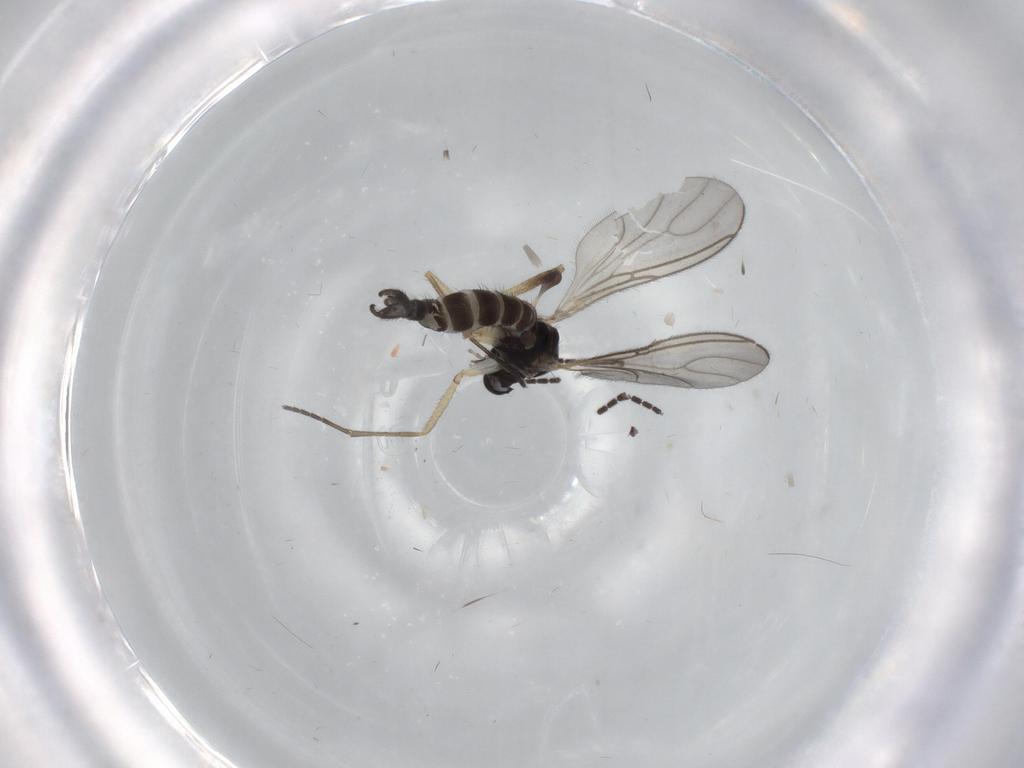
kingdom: Animalia
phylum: Arthropoda
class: Insecta
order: Diptera
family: Sciaridae
